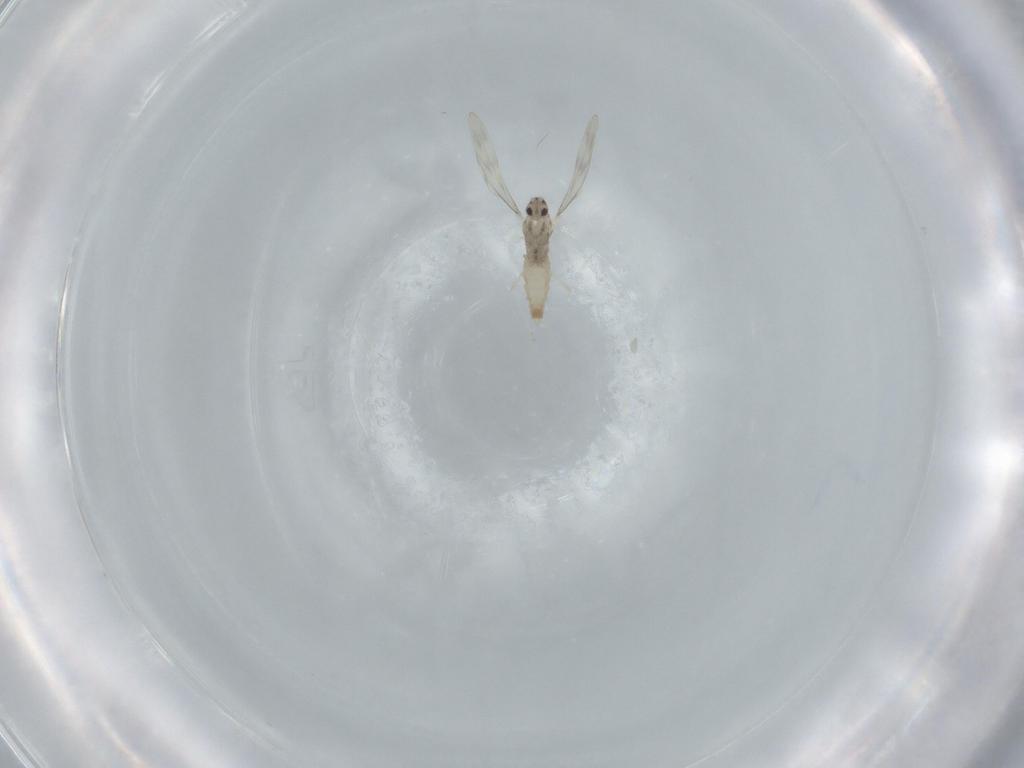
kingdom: Animalia
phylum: Arthropoda
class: Insecta
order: Diptera
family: Cecidomyiidae
